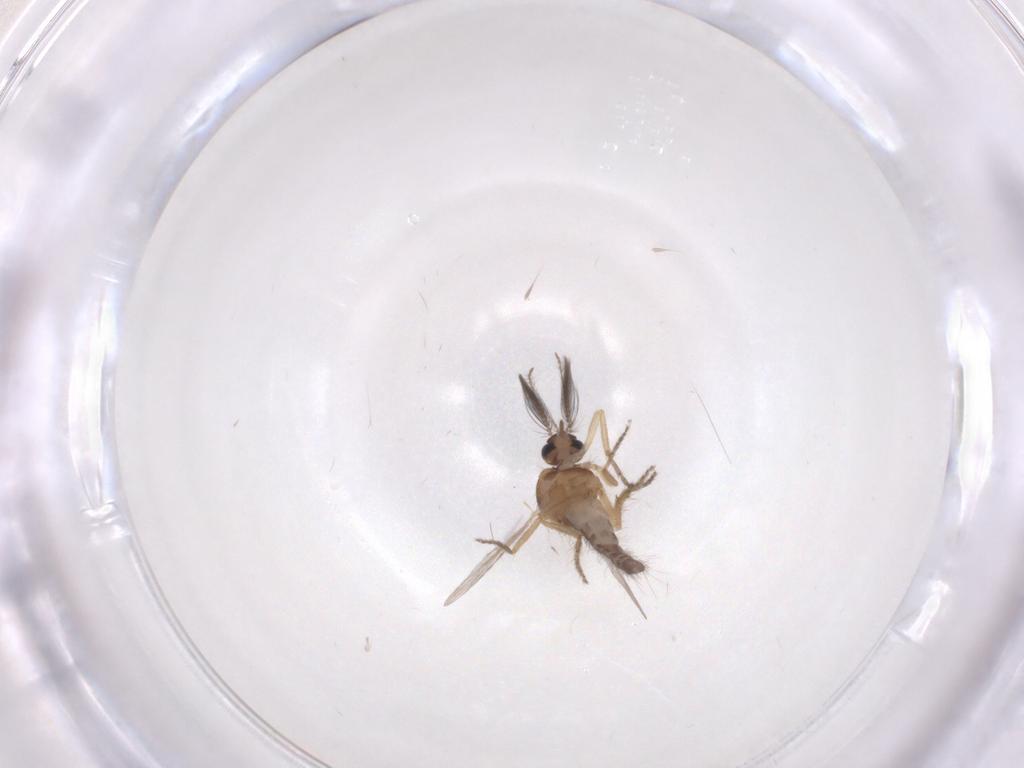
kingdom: Animalia
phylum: Arthropoda
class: Insecta
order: Diptera
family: Ceratopogonidae
